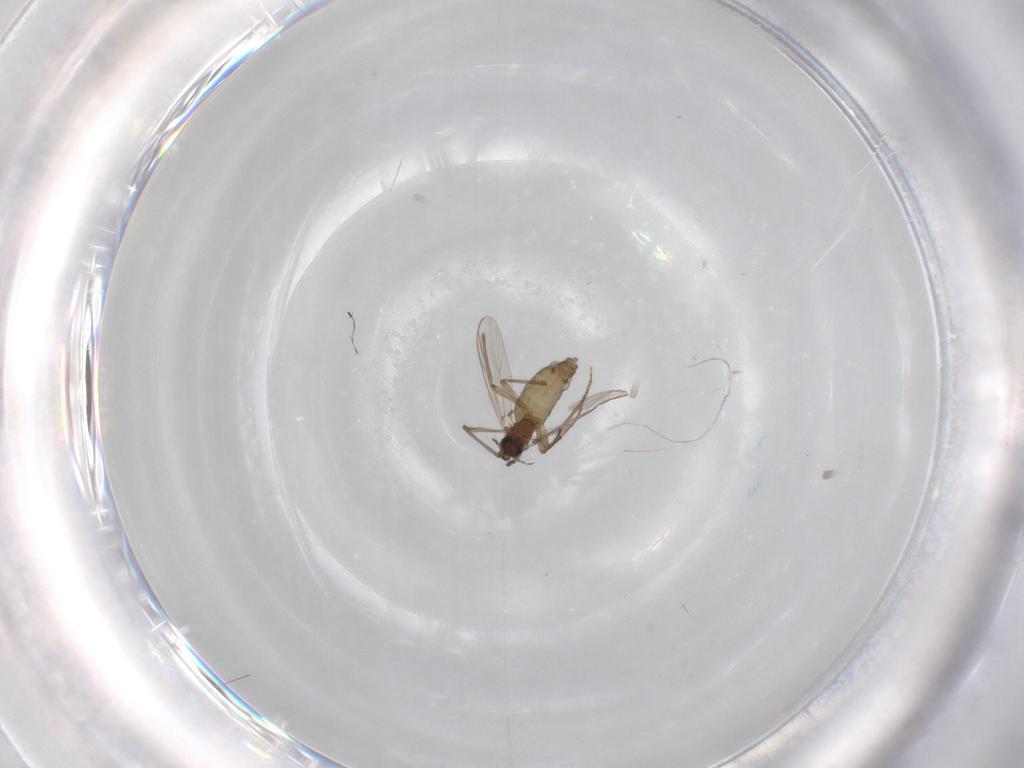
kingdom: Animalia
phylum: Arthropoda
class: Insecta
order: Diptera
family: Chironomidae
